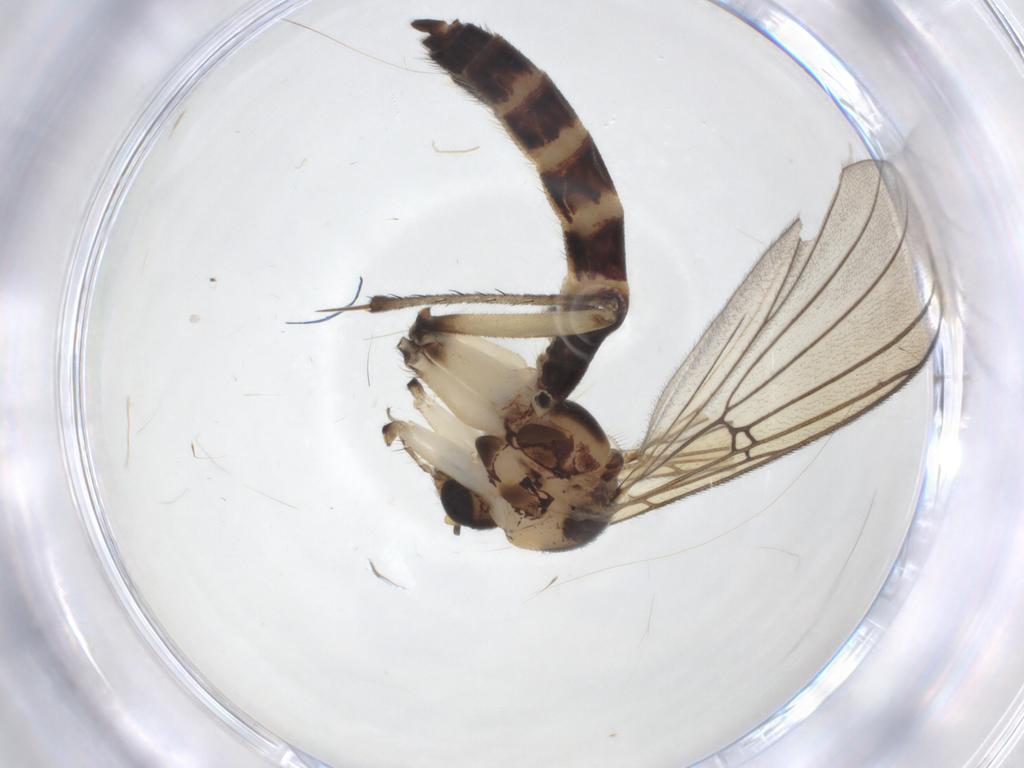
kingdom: Animalia
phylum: Arthropoda
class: Insecta
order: Diptera
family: Mycetophilidae
